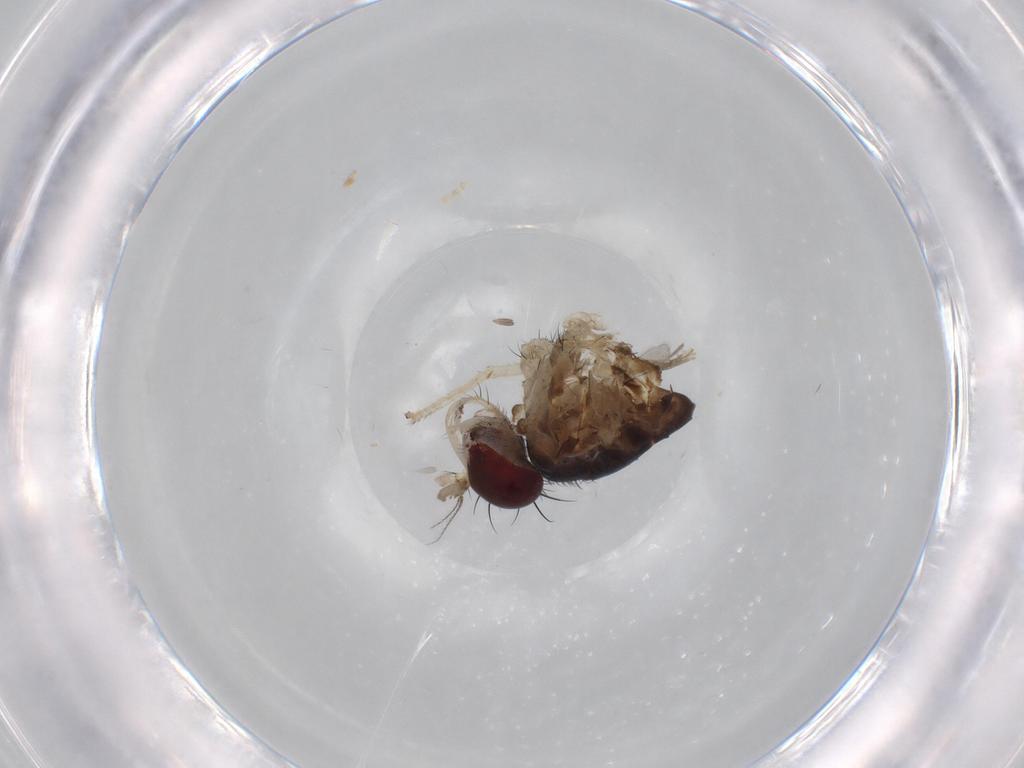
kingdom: Animalia
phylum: Arthropoda
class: Insecta
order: Diptera
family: Lauxaniidae
